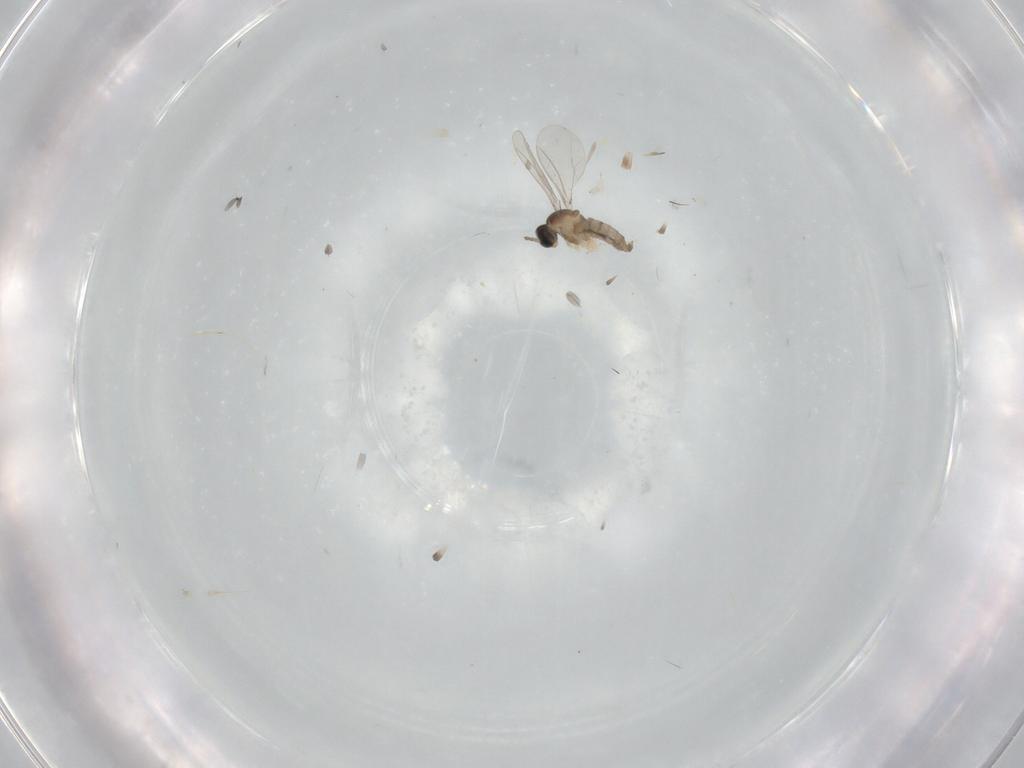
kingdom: Animalia
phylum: Arthropoda
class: Insecta
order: Diptera
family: Cecidomyiidae
